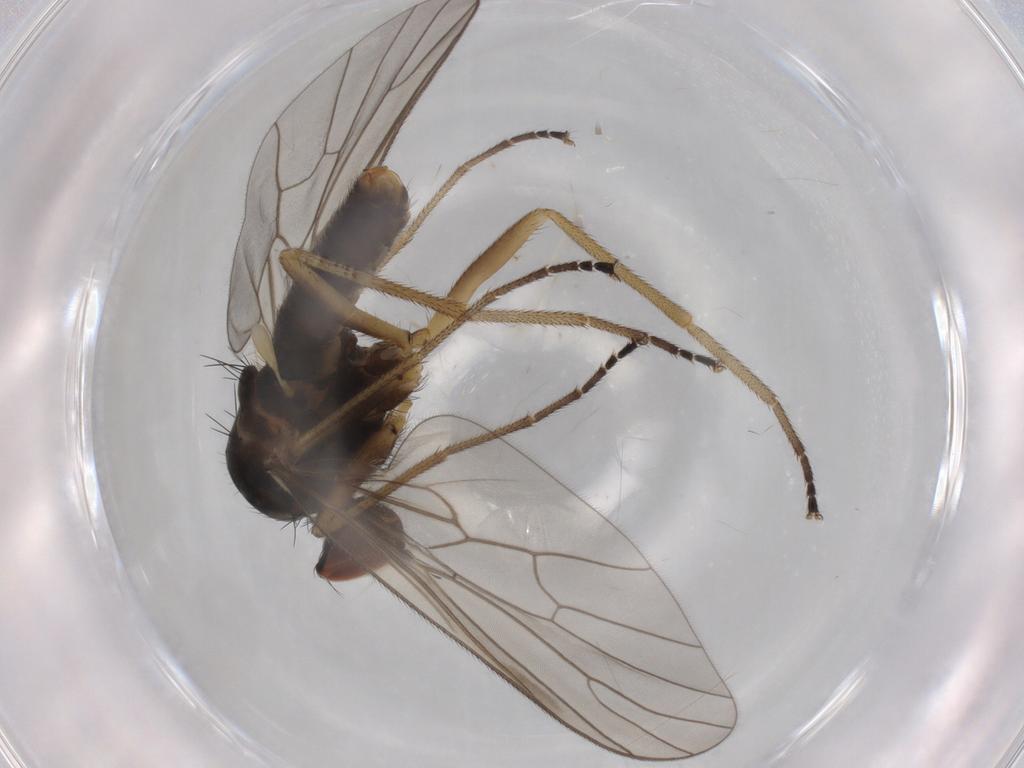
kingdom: Animalia
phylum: Arthropoda
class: Insecta
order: Diptera
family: Brachystomatidae
